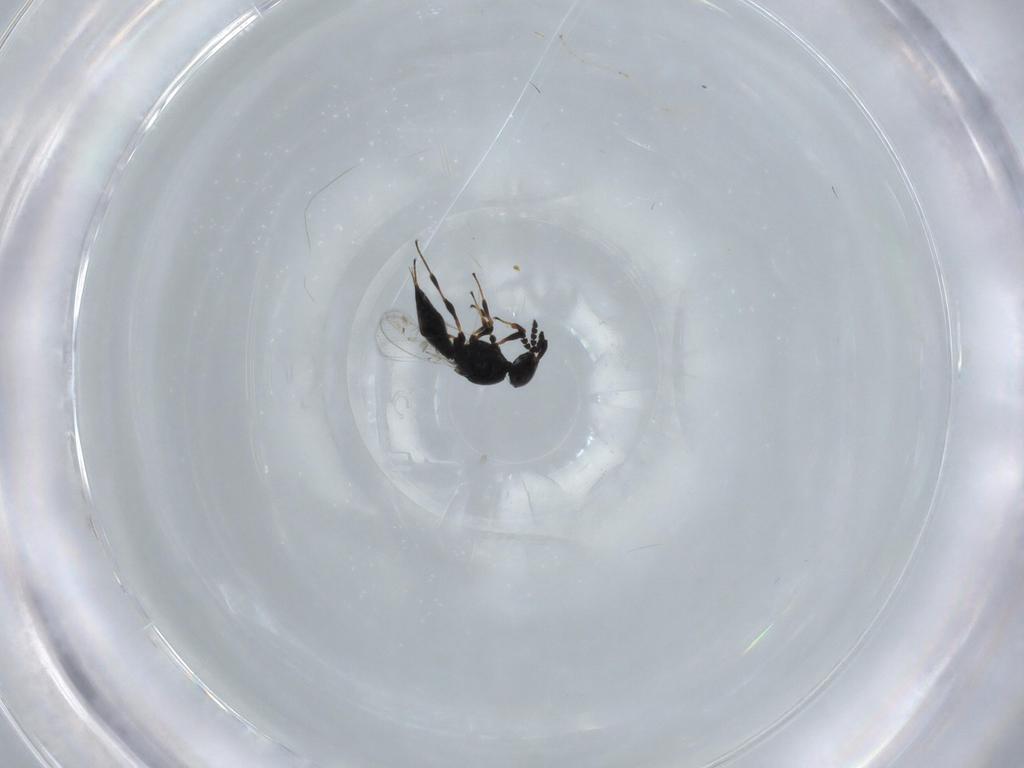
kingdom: Animalia
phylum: Arthropoda
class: Insecta
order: Hymenoptera
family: Platygastridae
